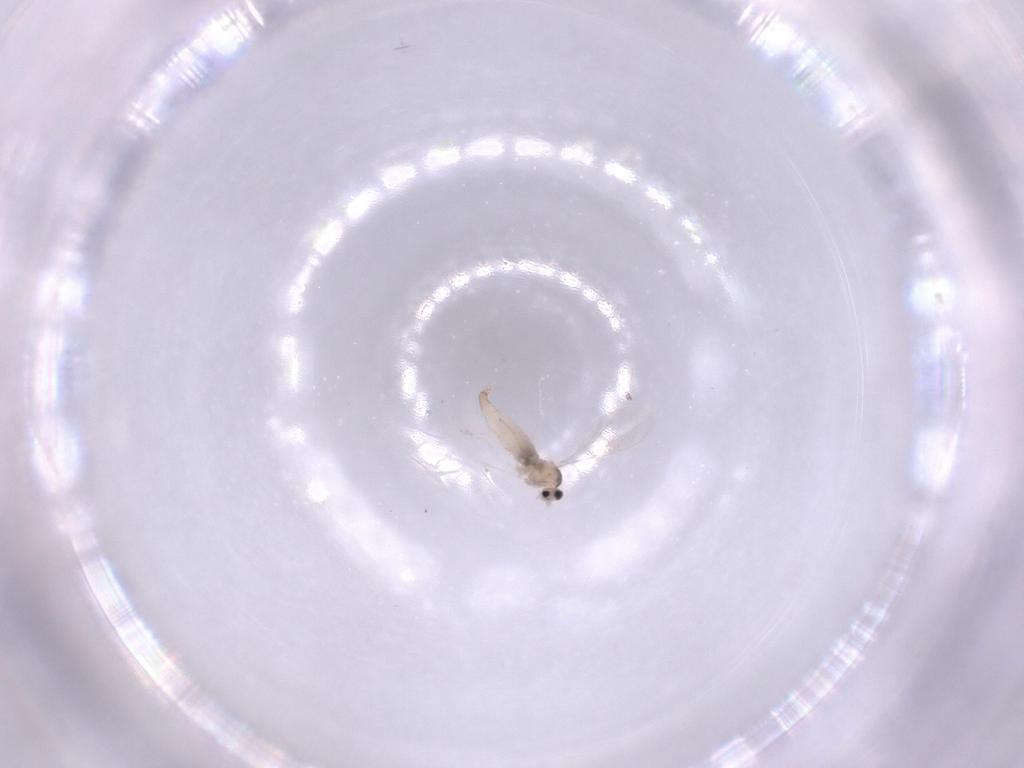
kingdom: Animalia
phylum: Arthropoda
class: Insecta
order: Diptera
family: Cecidomyiidae
